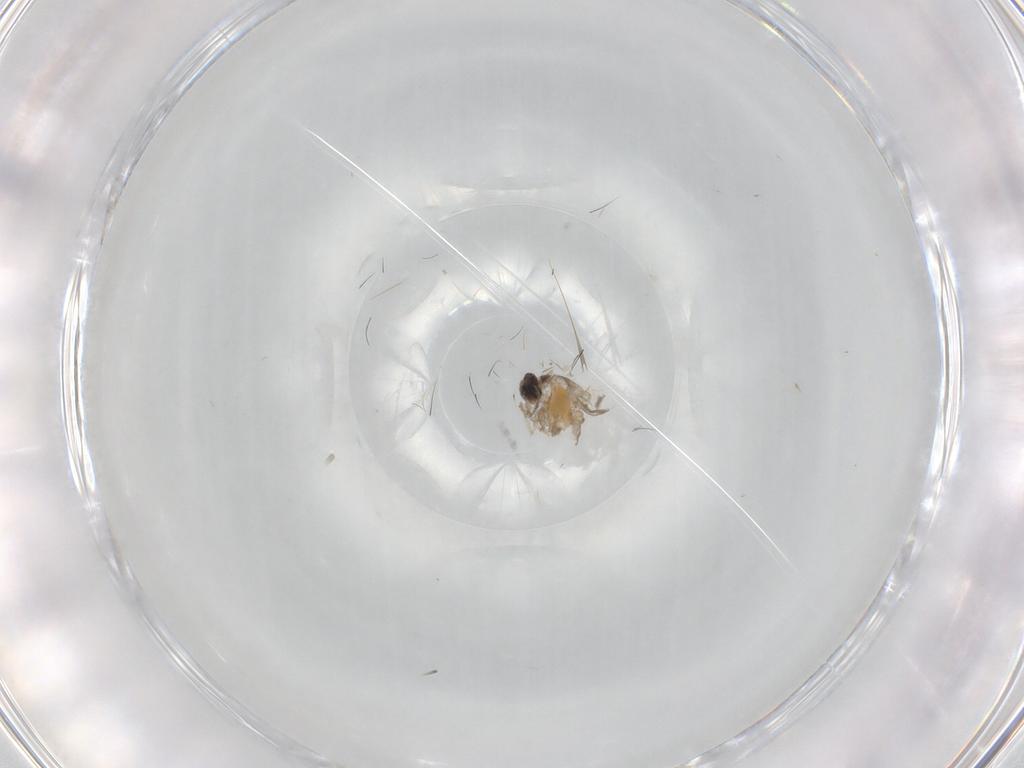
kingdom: Animalia
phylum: Arthropoda
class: Insecta
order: Diptera
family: Cecidomyiidae
